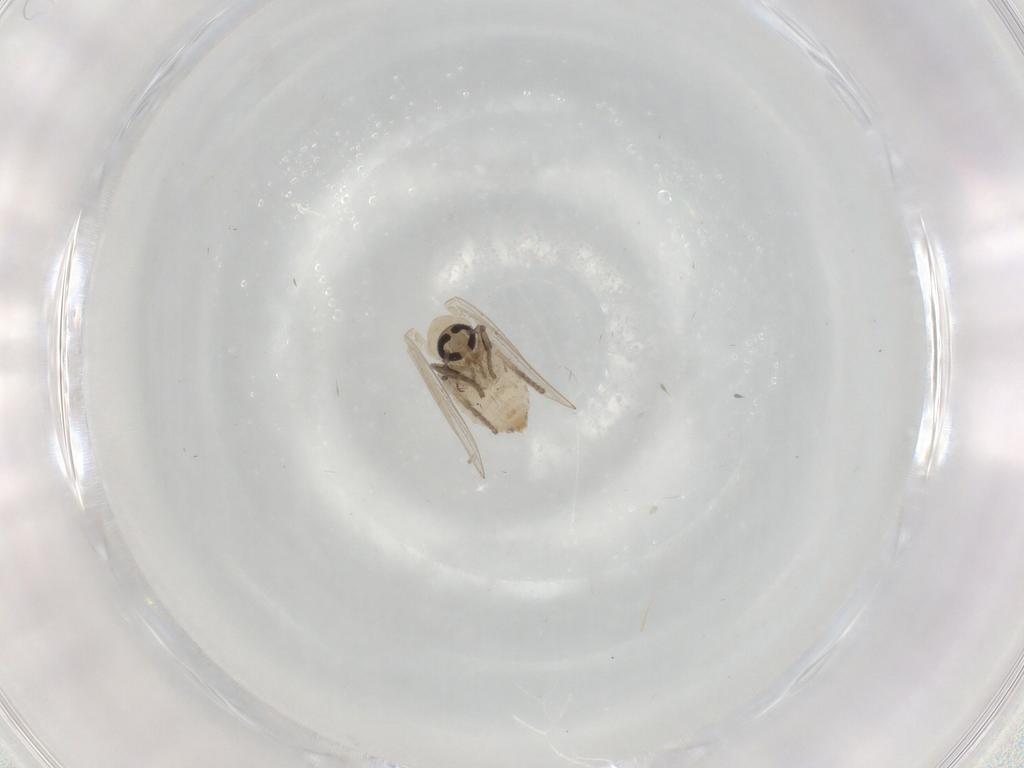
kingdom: Animalia
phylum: Arthropoda
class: Insecta
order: Diptera
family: Psychodidae
